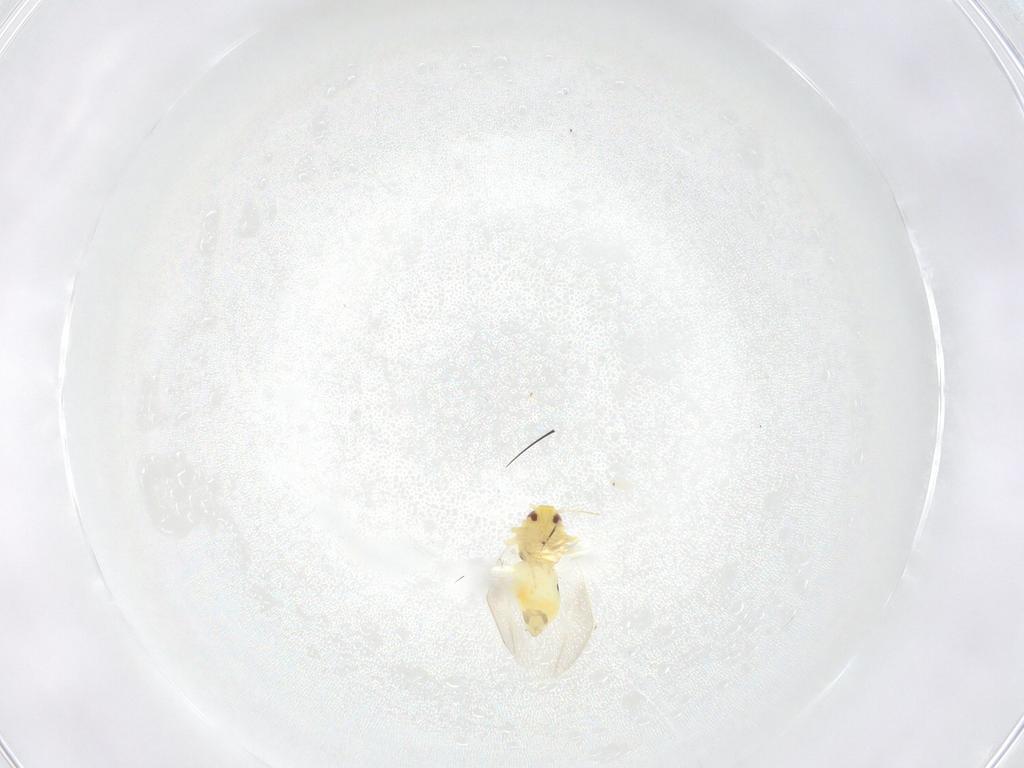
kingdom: Animalia
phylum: Arthropoda
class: Insecta
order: Hemiptera
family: Aleyrodidae
